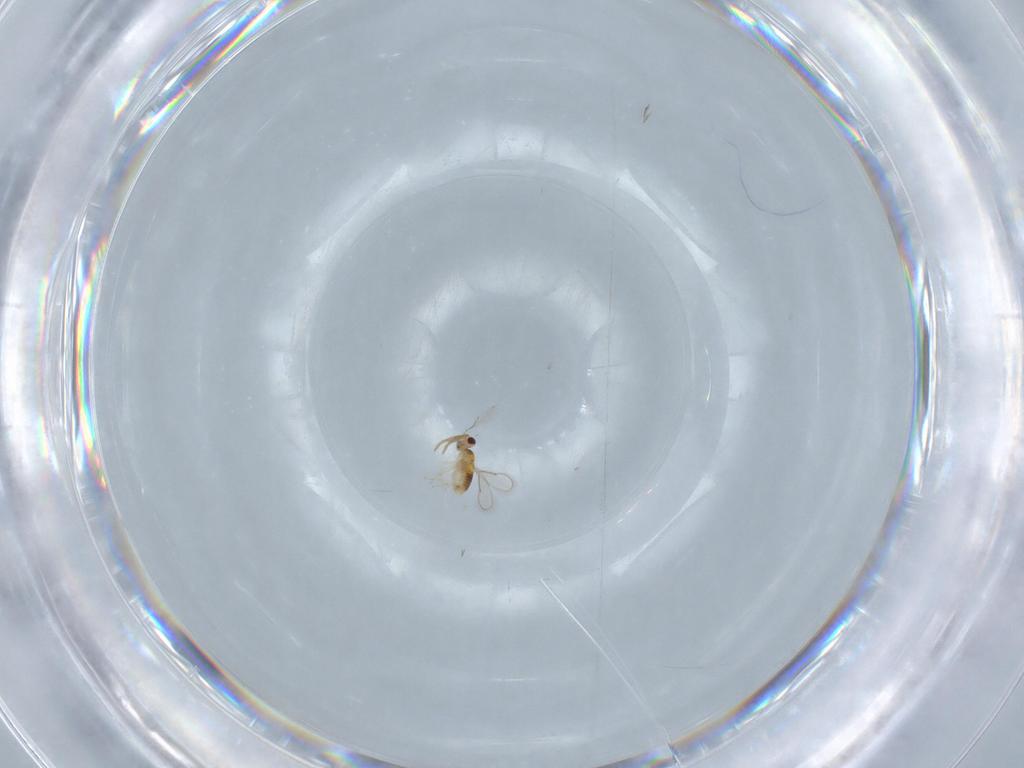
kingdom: Animalia
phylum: Arthropoda
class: Insecta
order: Hymenoptera
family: Aphelinidae
